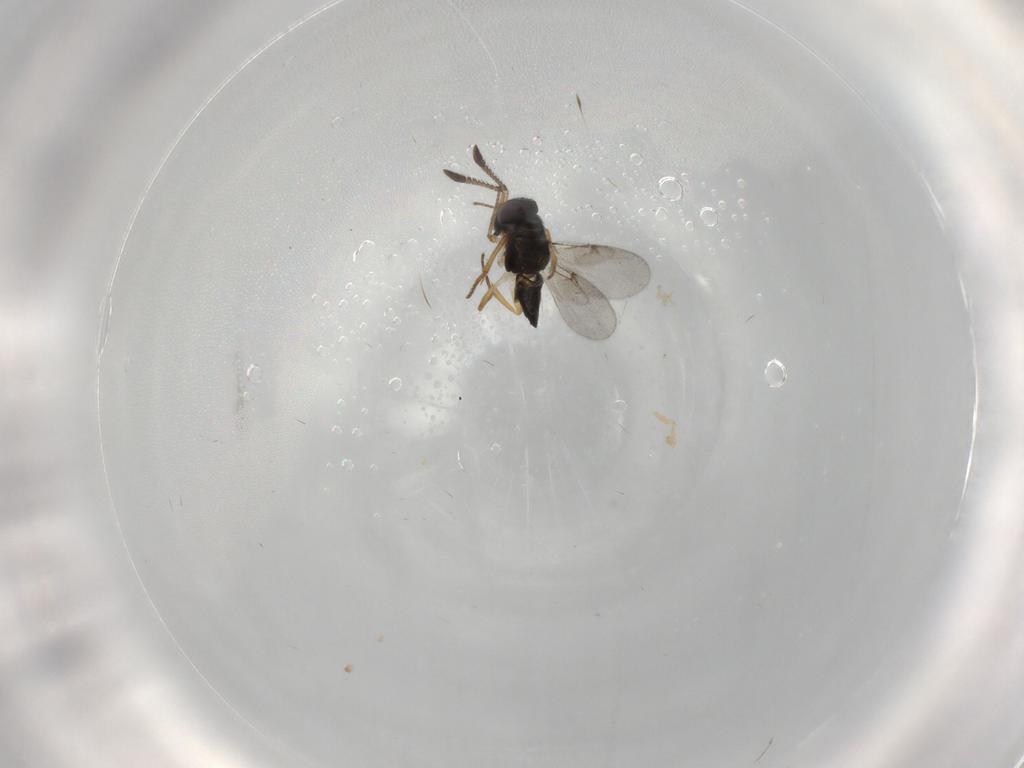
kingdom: Animalia
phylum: Arthropoda
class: Insecta
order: Hymenoptera
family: Encyrtidae
